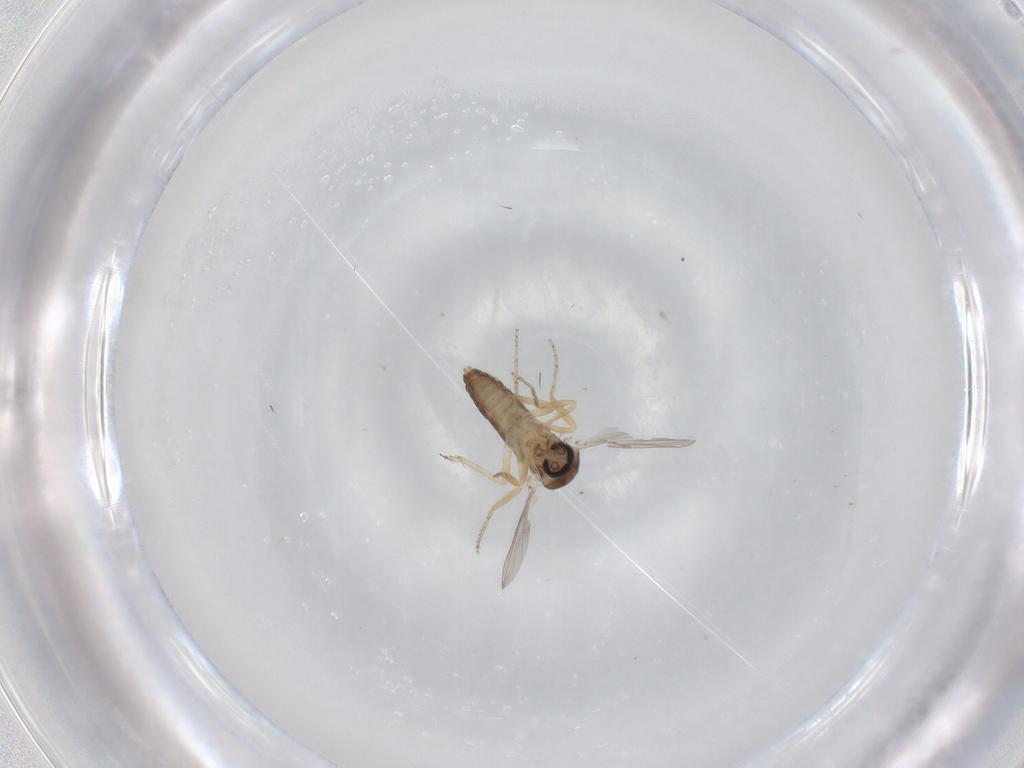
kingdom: Animalia
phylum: Arthropoda
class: Insecta
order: Diptera
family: Ceratopogonidae
